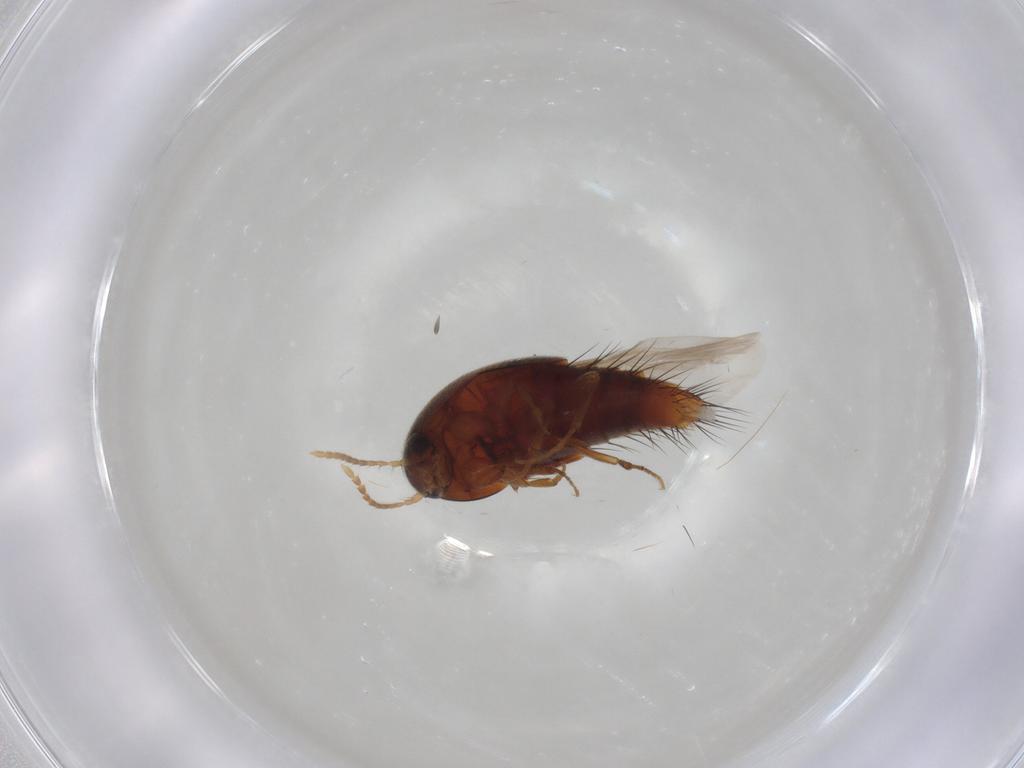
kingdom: Animalia
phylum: Arthropoda
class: Insecta
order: Coleoptera
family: Staphylinidae
